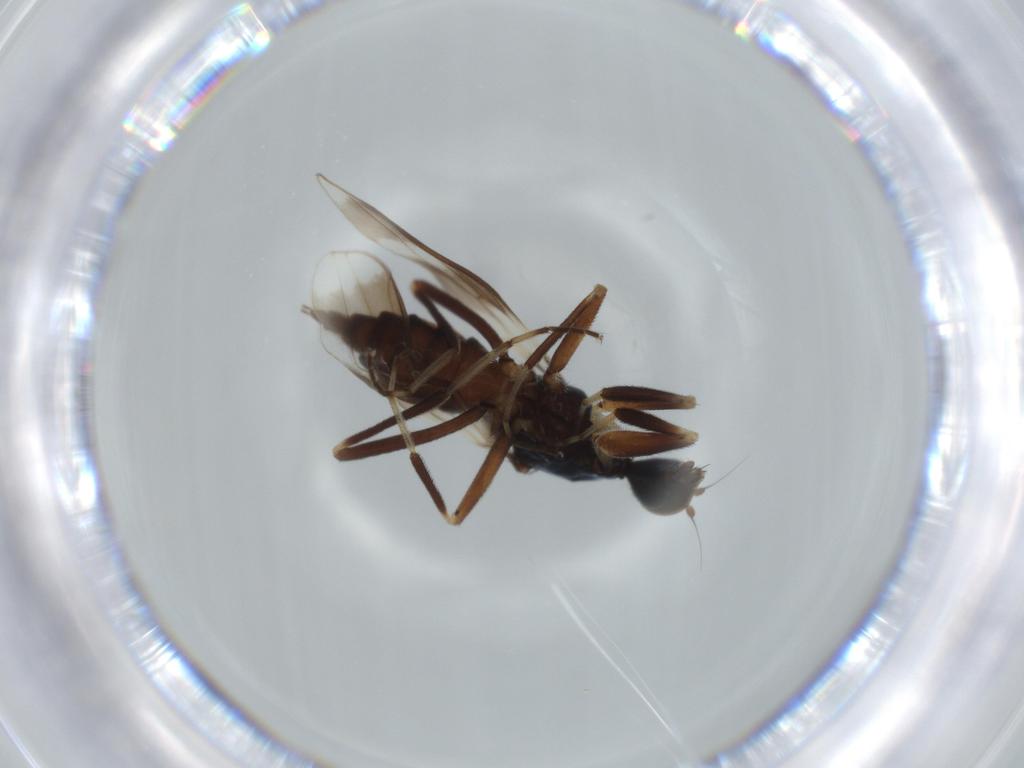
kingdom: Animalia
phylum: Arthropoda
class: Insecta
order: Diptera
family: Hybotidae
